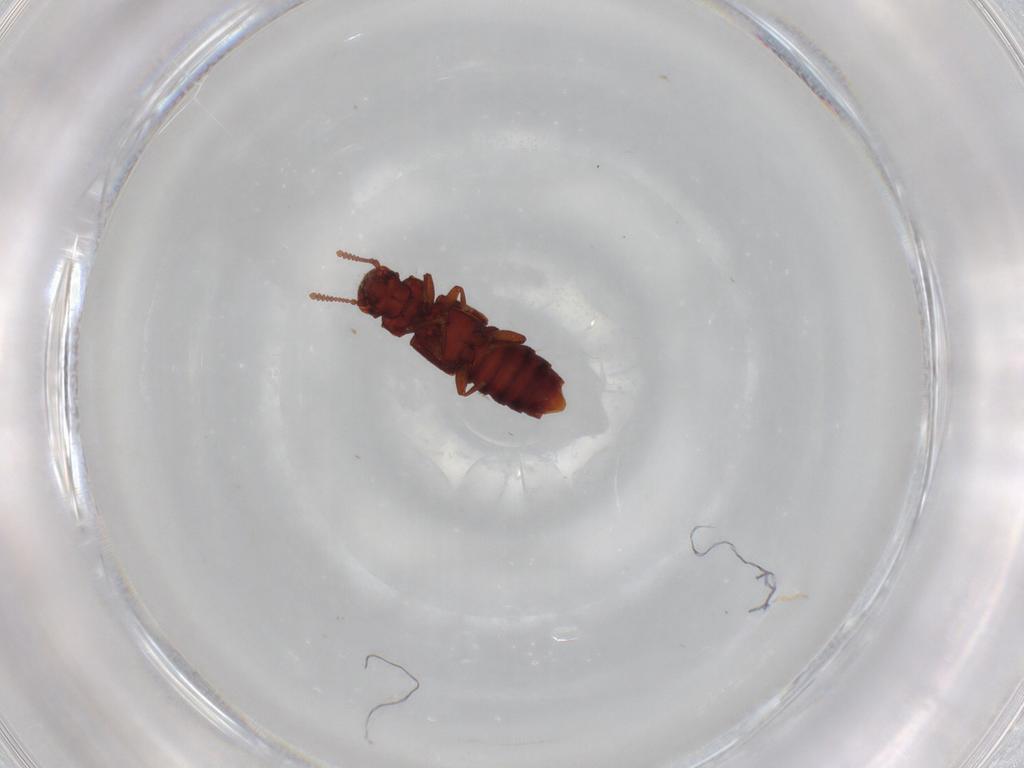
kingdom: Animalia
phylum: Arthropoda
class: Insecta
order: Coleoptera
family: Staphylinidae
